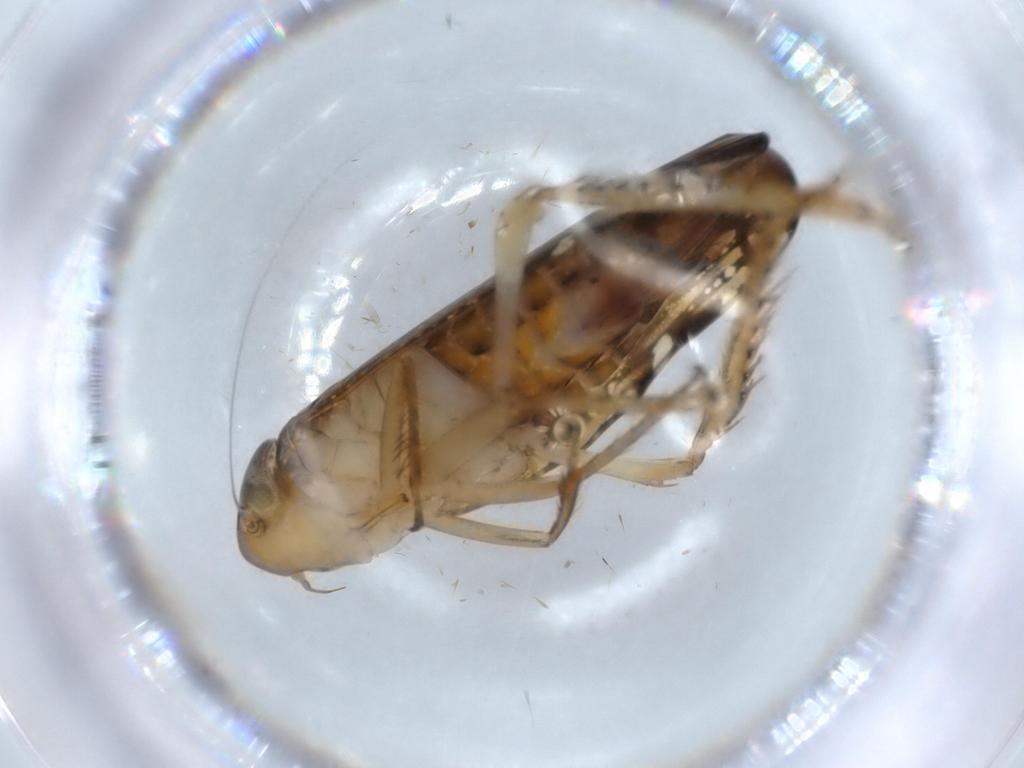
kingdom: Animalia
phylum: Arthropoda
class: Insecta
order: Hemiptera
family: Cicadellidae
